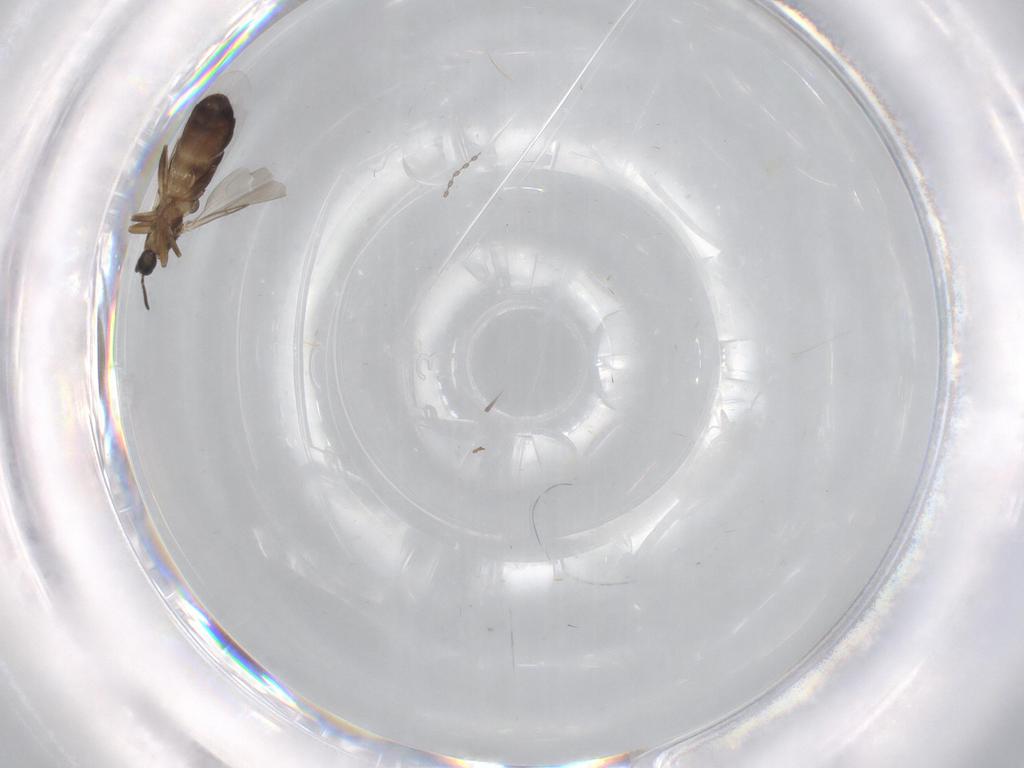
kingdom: Animalia
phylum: Arthropoda
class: Insecta
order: Diptera
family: Scatopsidae
